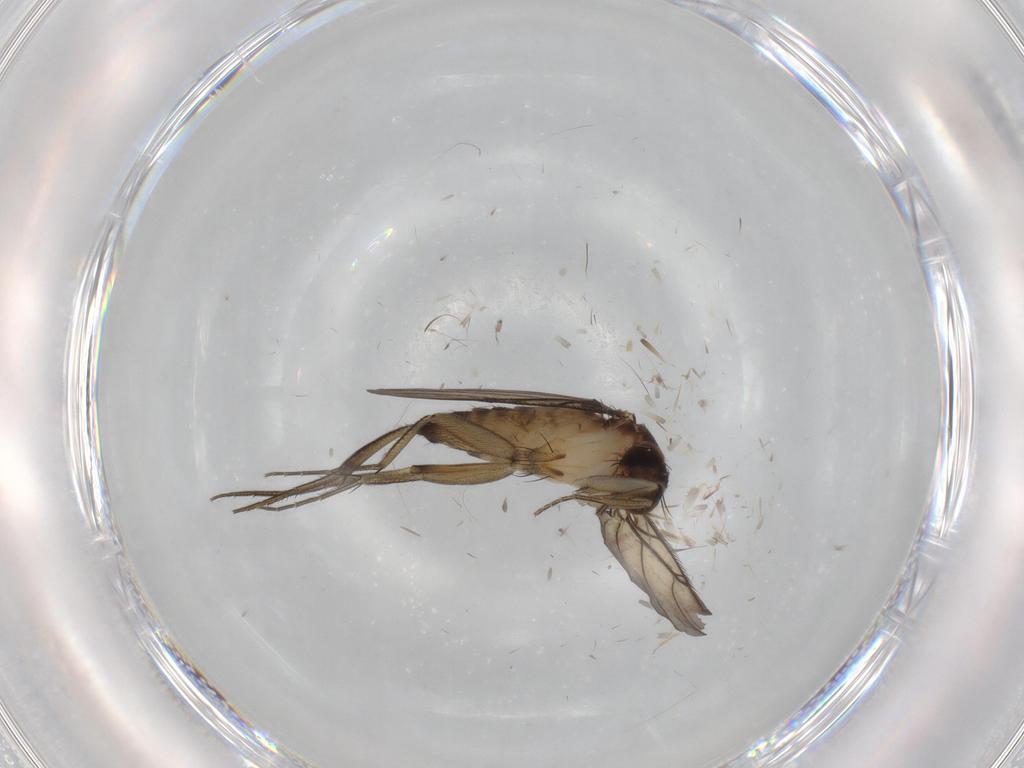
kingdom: Animalia
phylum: Arthropoda
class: Insecta
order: Diptera
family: Phoridae
